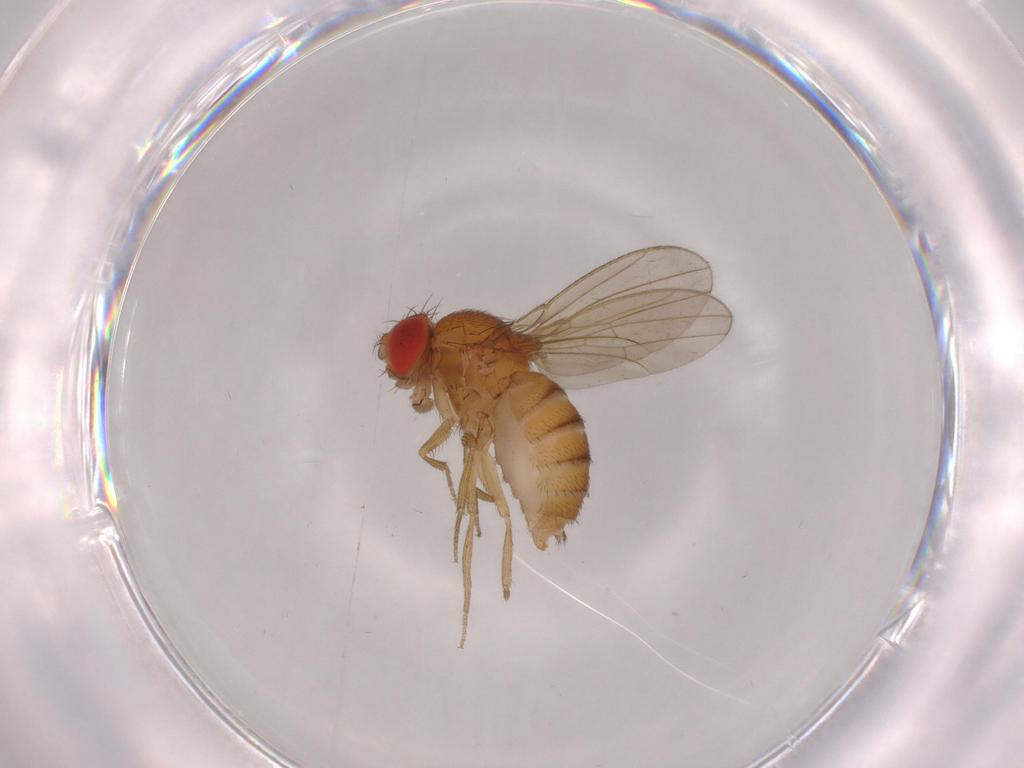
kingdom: Animalia
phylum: Arthropoda
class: Insecta
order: Diptera
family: Drosophilidae
